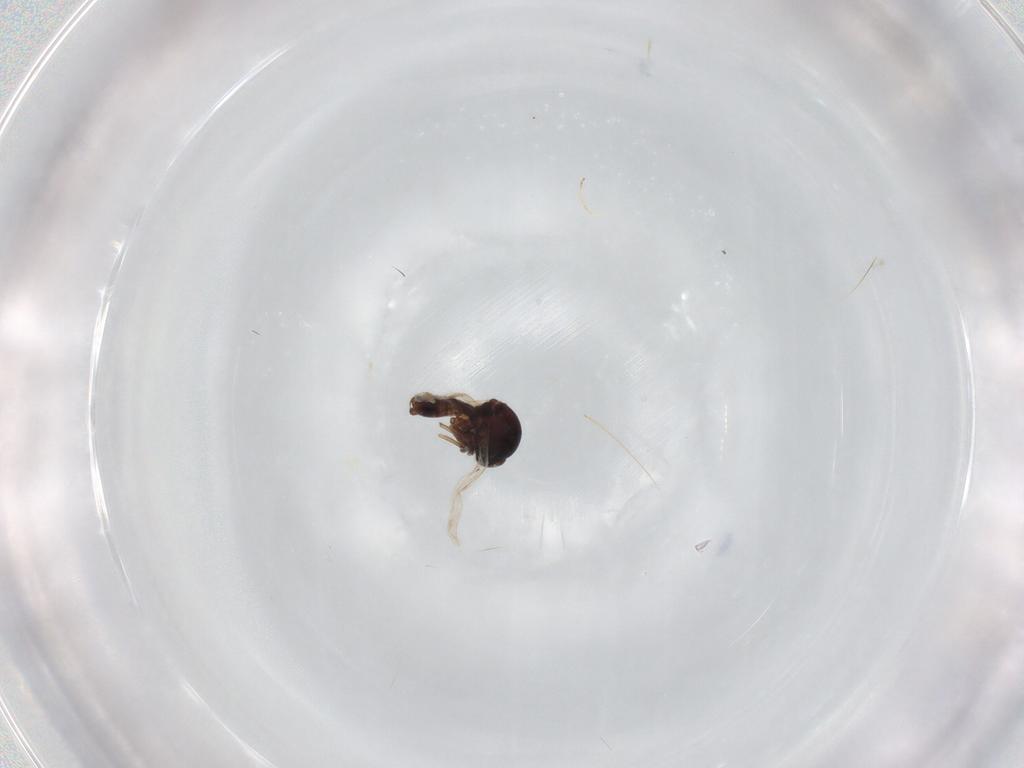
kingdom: Animalia
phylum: Arthropoda
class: Insecta
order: Diptera
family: Ceratopogonidae
